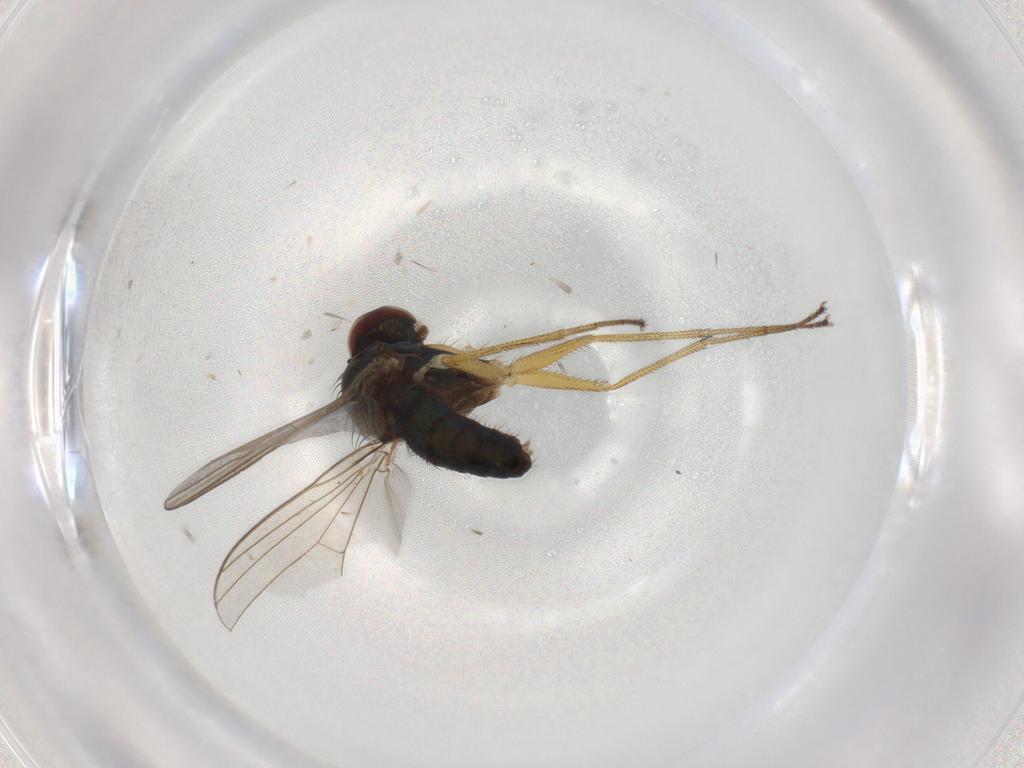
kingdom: Animalia
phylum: Arthropoda
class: Insecta
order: Diptera
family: Dolichopodidae
